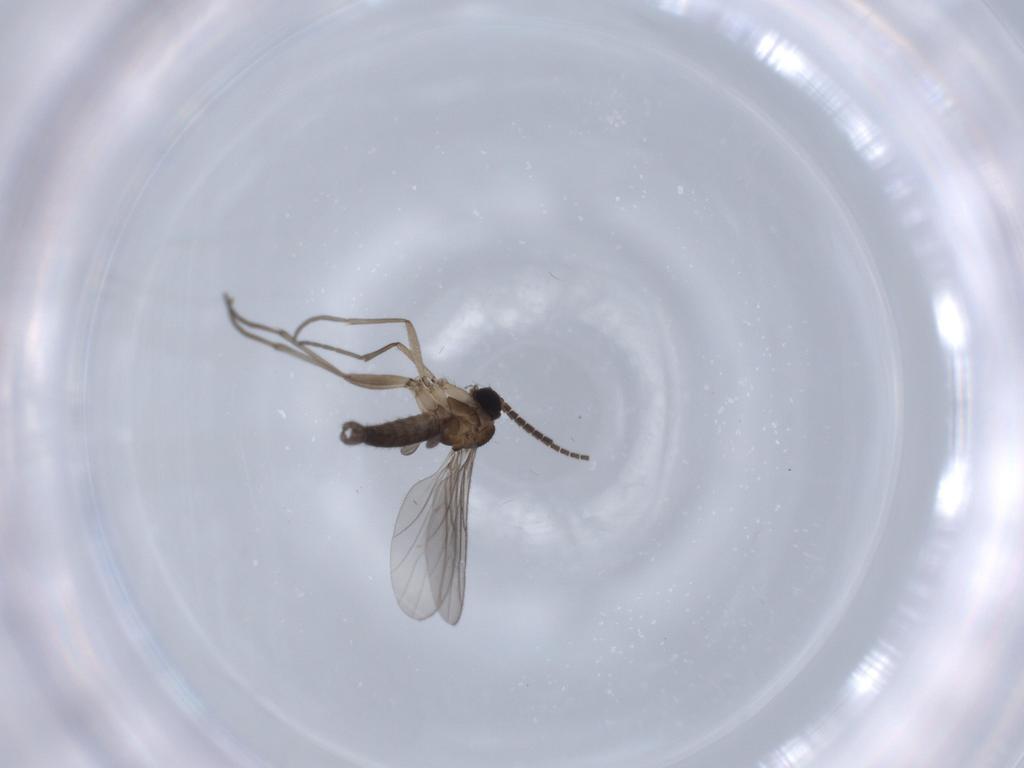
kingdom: Animalia
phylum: Arthropoda
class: Insecta
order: Diptera
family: Sciaridae
